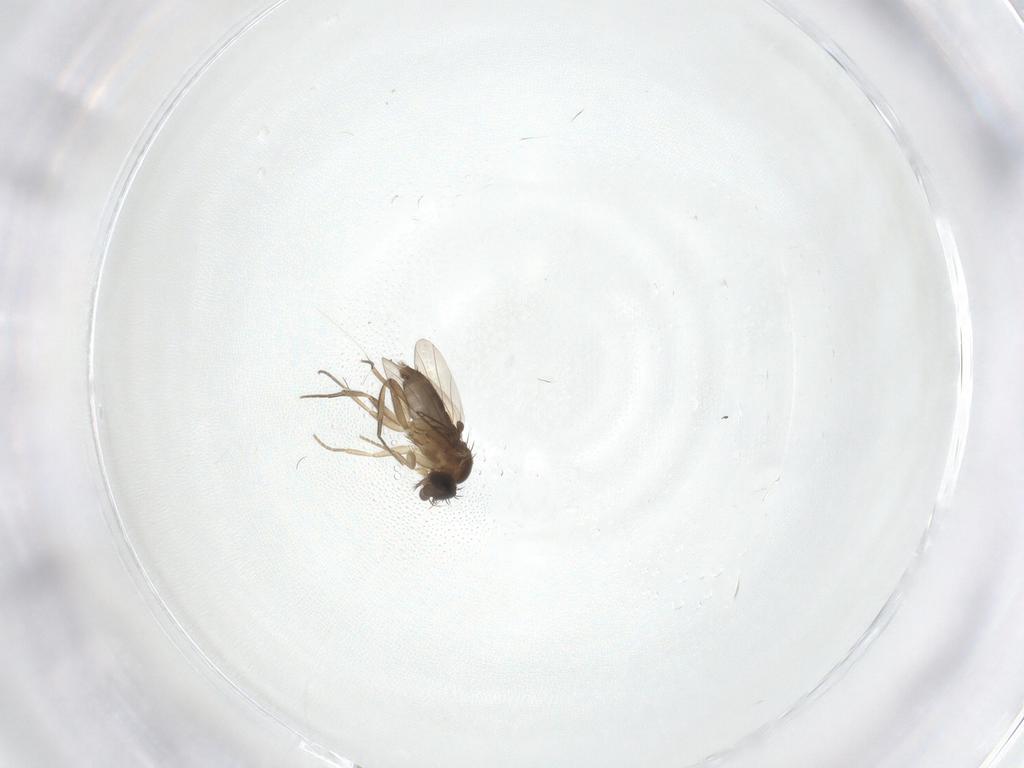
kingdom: Animalia
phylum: Arthropoda
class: Insecta
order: Diptera
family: Phoridae
